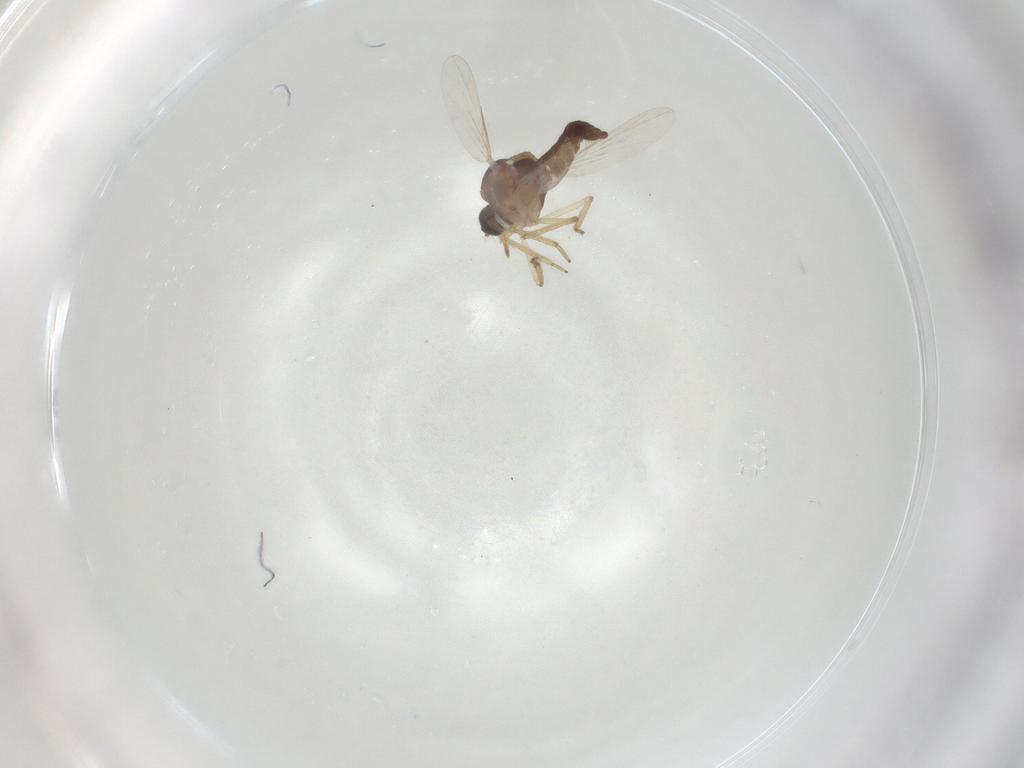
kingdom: Animalia
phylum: Arthropoda
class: Insecta
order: Diptera
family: Ceratopogonidae
